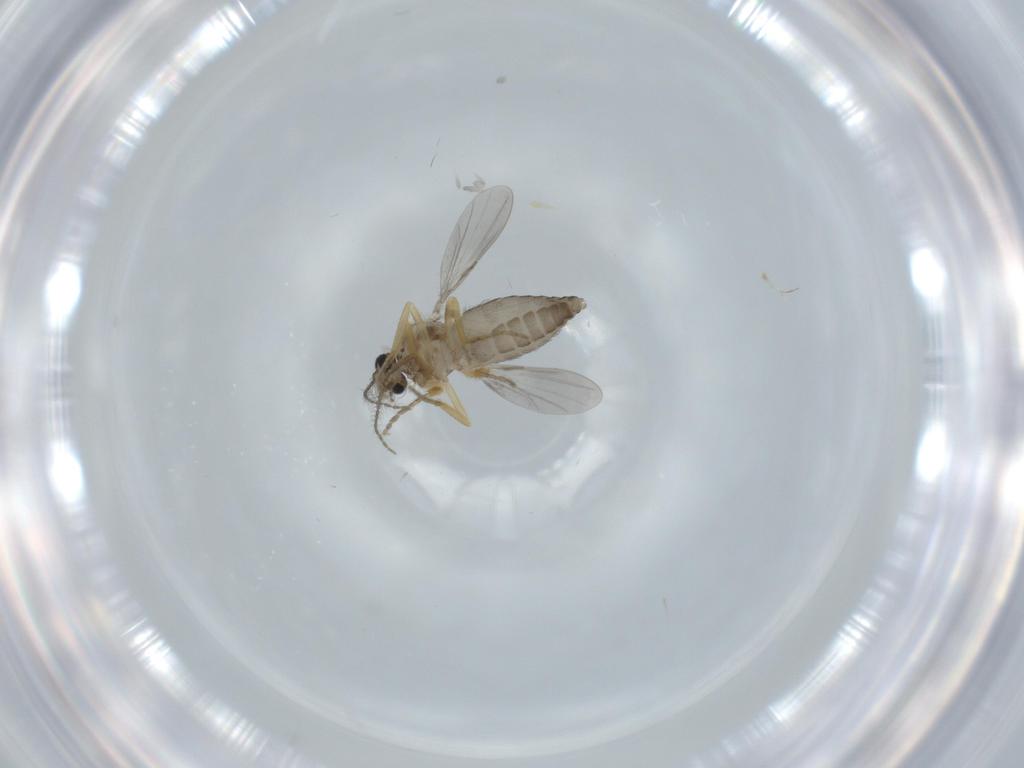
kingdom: Animalia
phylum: Arthropoda
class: Insecta
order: Diptera
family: Ceratopogonidae
